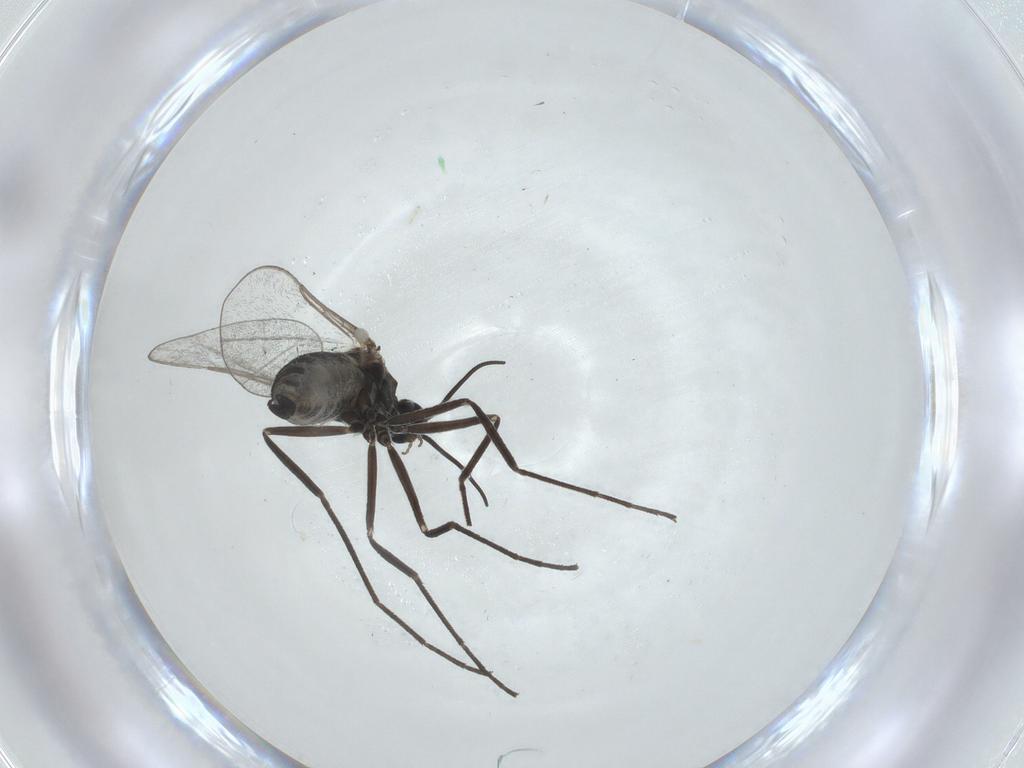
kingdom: Animalia
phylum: Arthropoda
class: Insecta
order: Diptera
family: Cecidomyiidae
